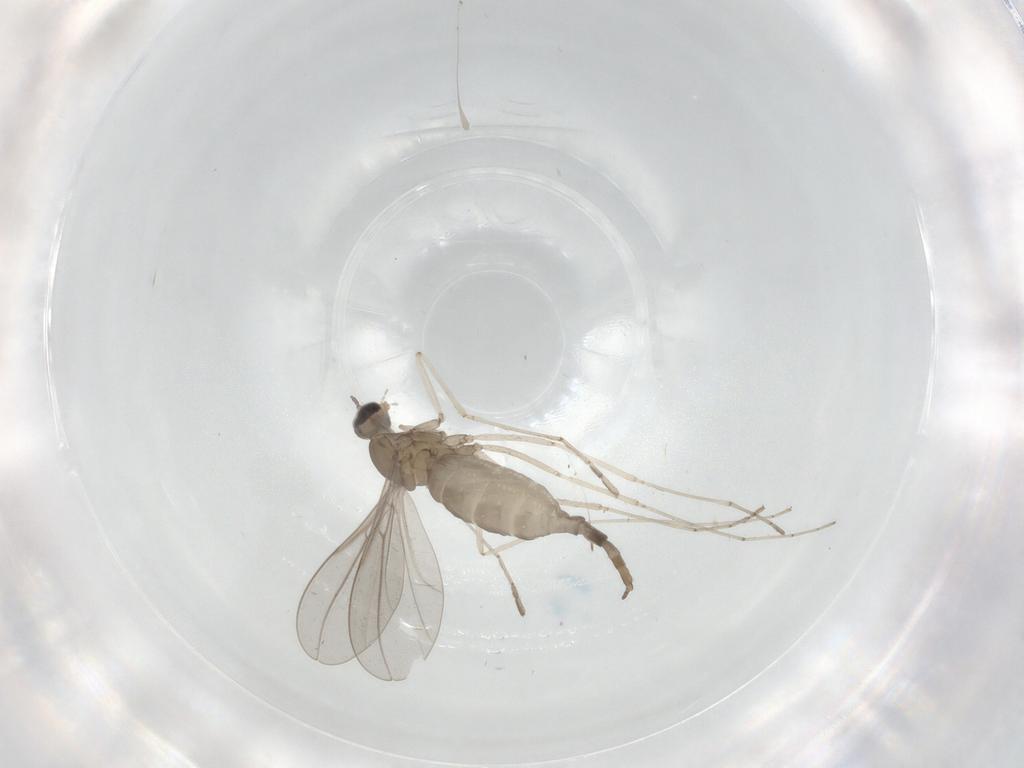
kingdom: Animalia
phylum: Arthropoda
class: Insecta
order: Diptera
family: Cecidomyiidae
